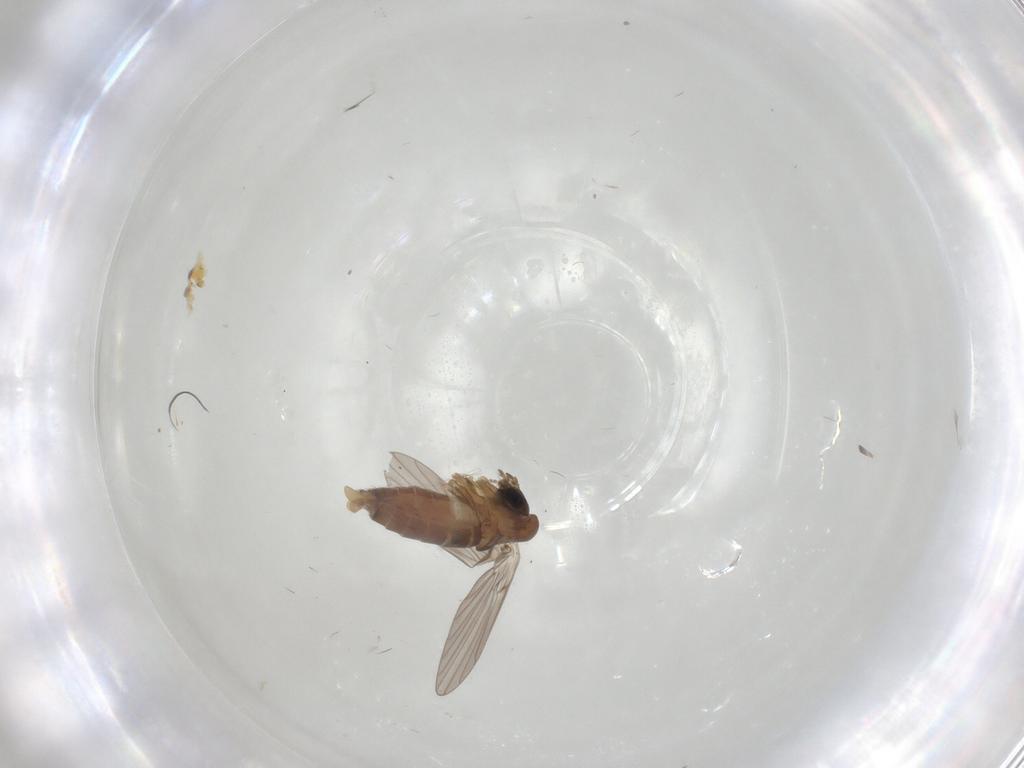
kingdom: Animalia
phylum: Arthropoda
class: Insecta
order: Diptera
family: Cecidomyiidae
